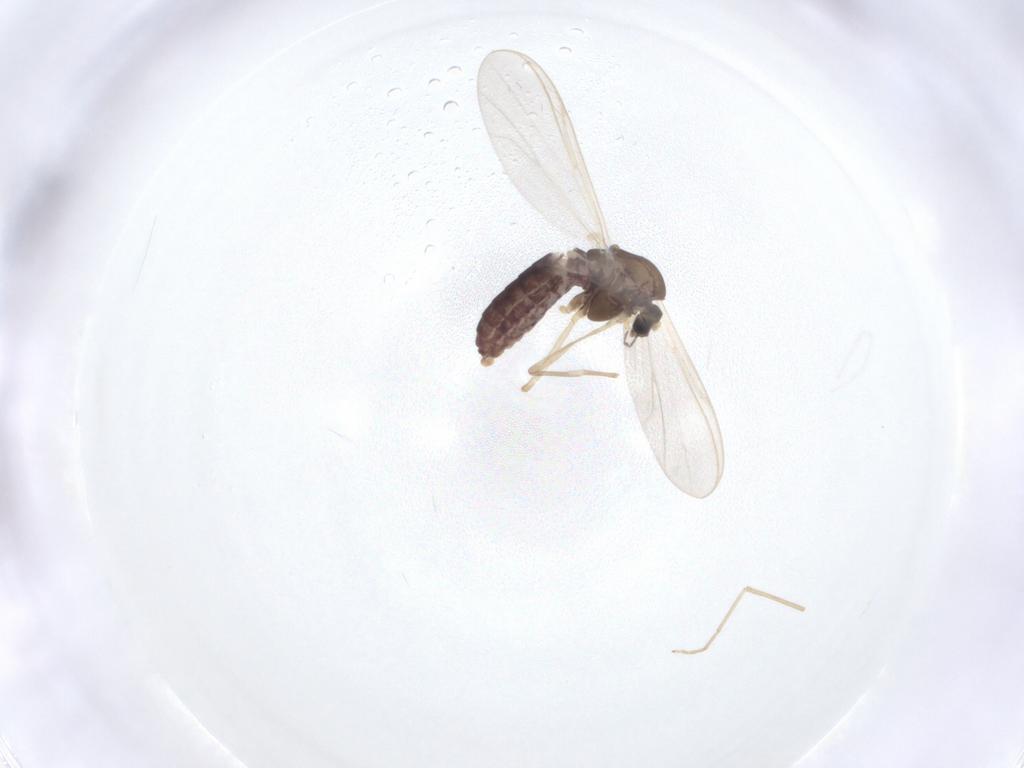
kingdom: Animalia
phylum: Arthropoda
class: Insecta
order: Diptera
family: Chironomidae
